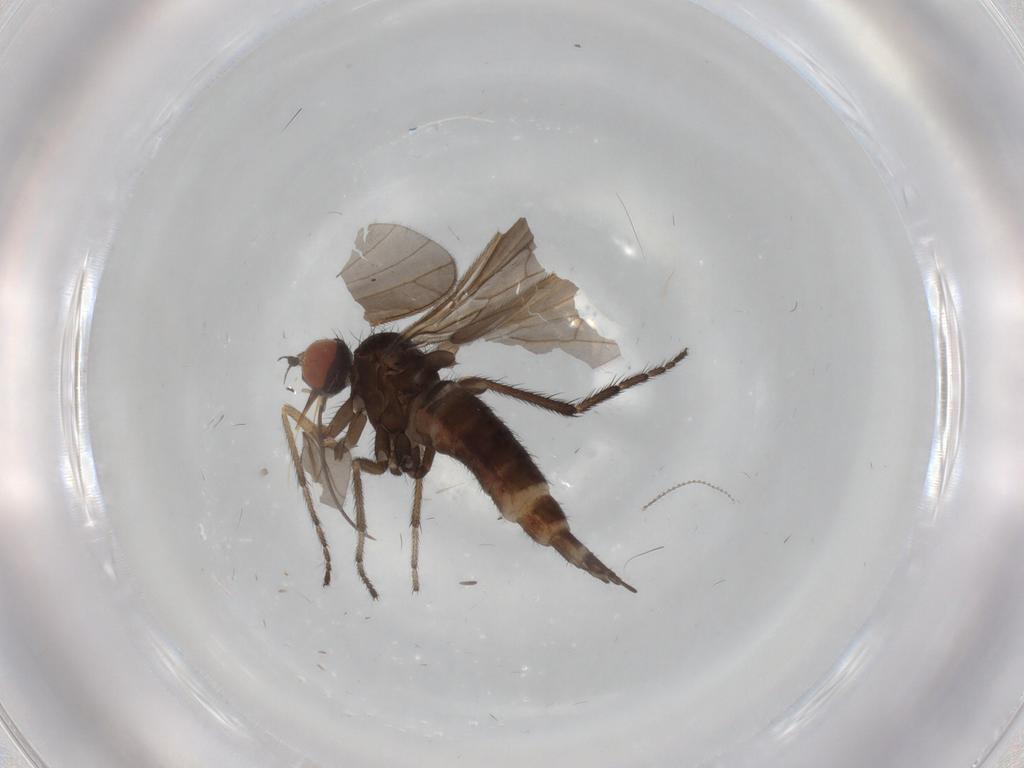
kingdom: Animalia
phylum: Arthropoda
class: Insecta
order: Diptera
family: Empididae
